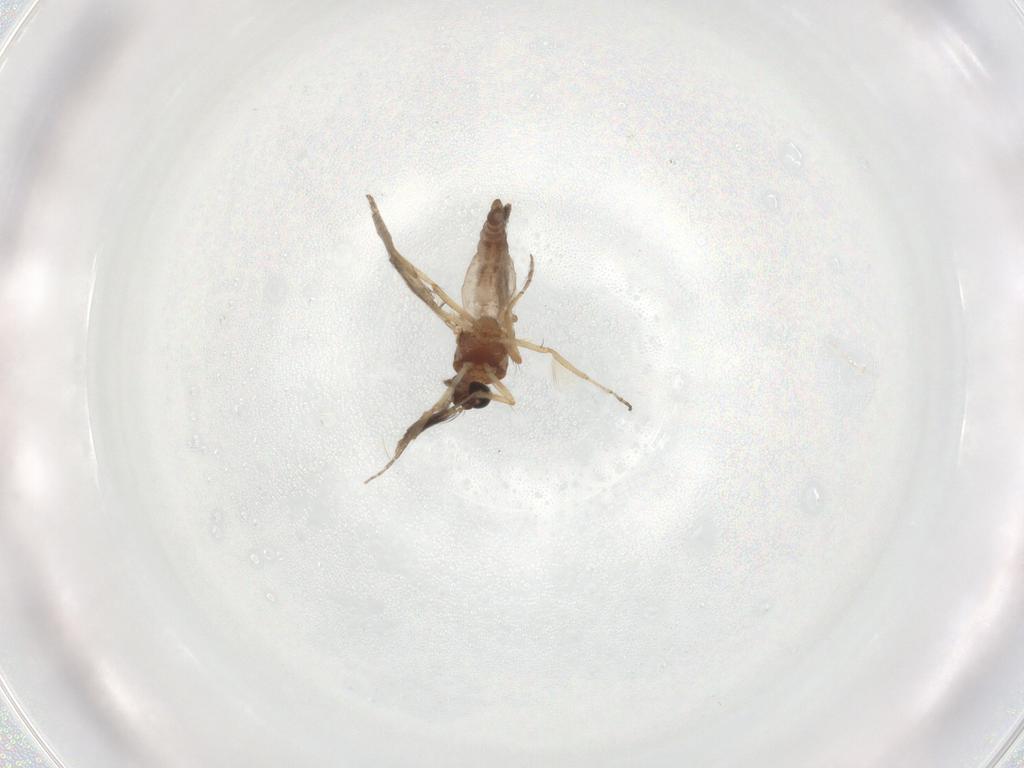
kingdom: Animalia
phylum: Arthropoda
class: Insecta
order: Diptera
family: Ceratopogonidae
